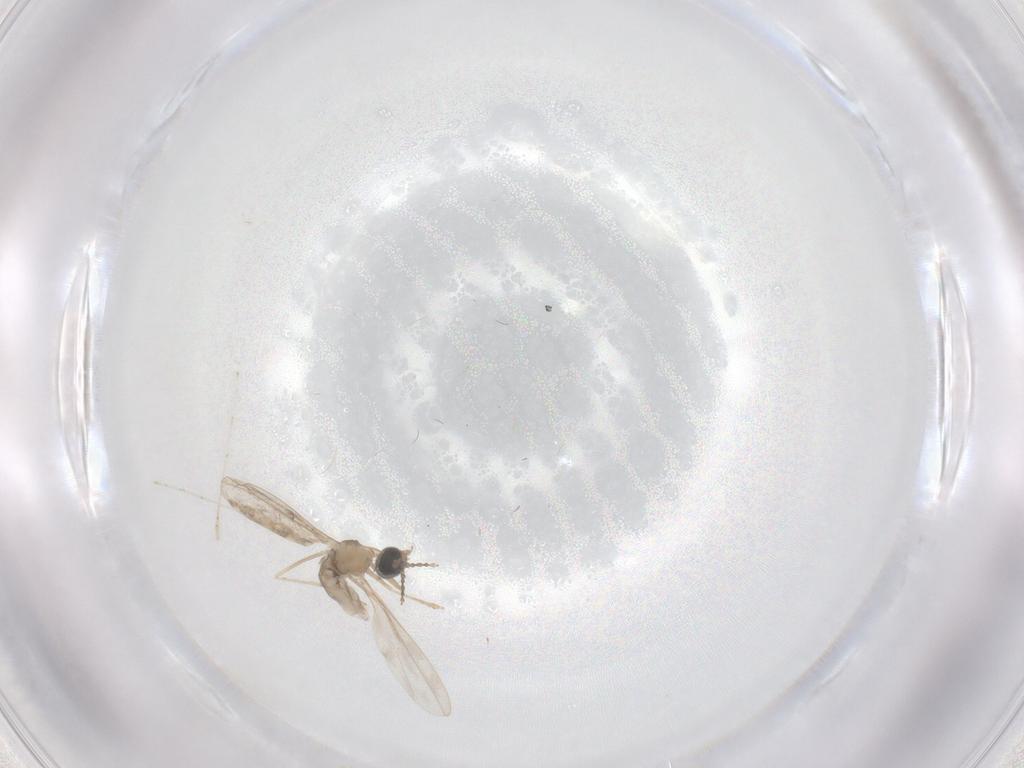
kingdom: Animalia
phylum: Arthropoda
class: Insecta
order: Diptera
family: Cecidomyiidae
